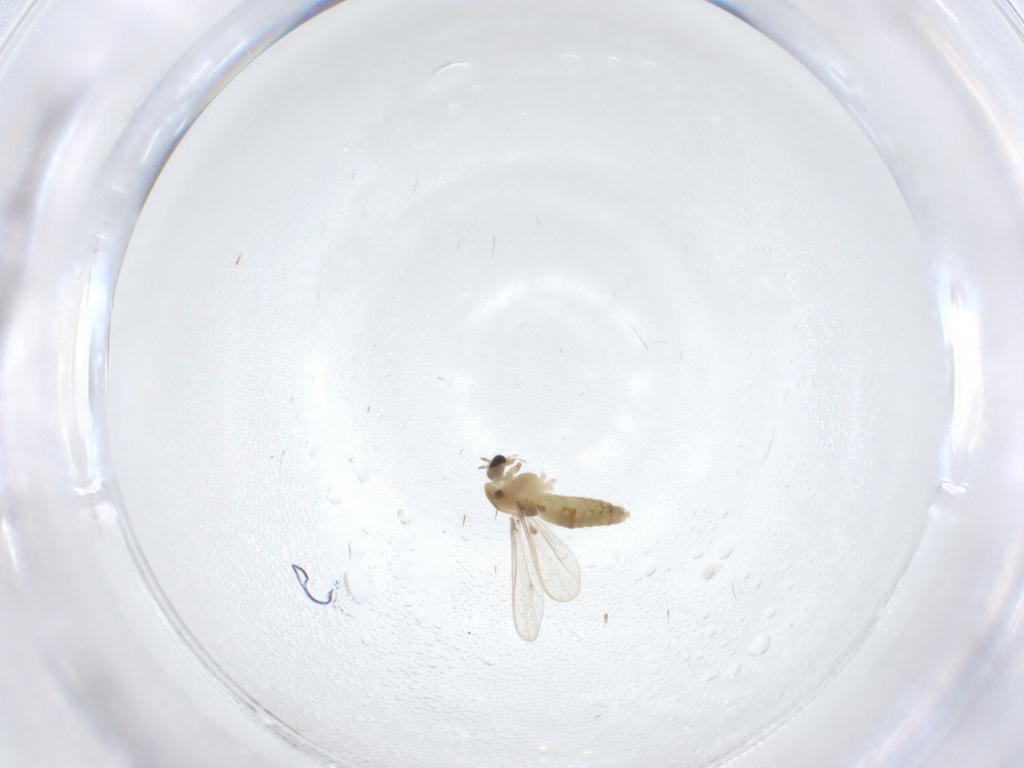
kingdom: Animalia
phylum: Arthropoda
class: Insecta
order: Diptera
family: Chironomidae
